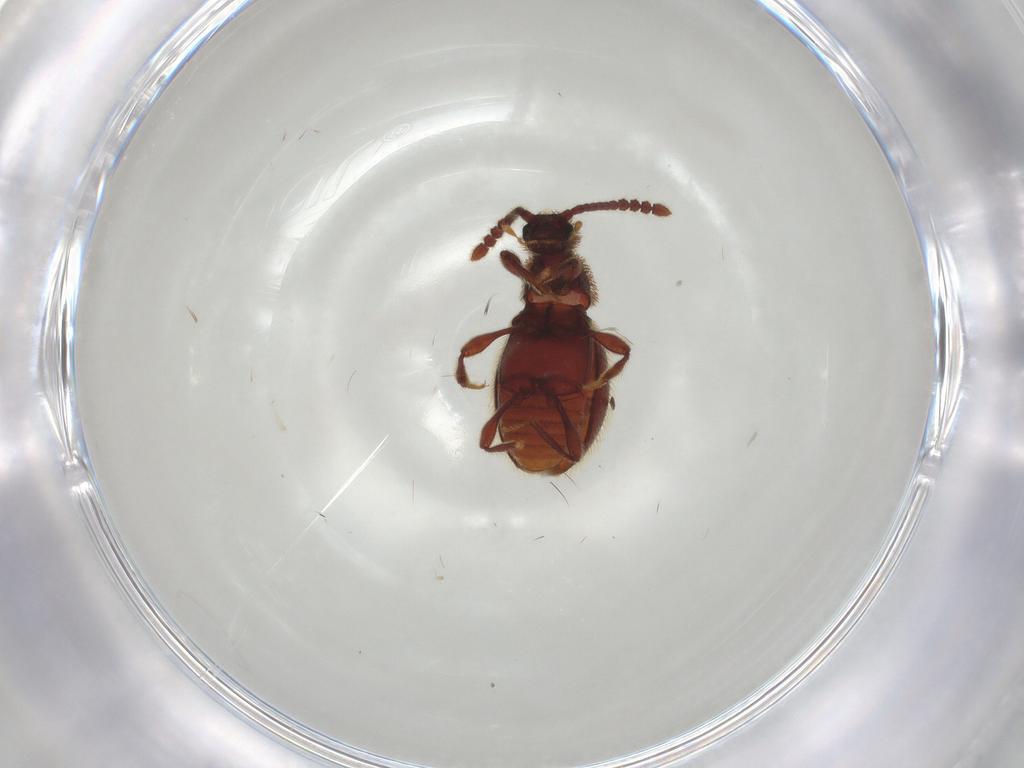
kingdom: Animalia
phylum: Arthropoda
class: Insecta
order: Coleoptera
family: Staphylinidae
